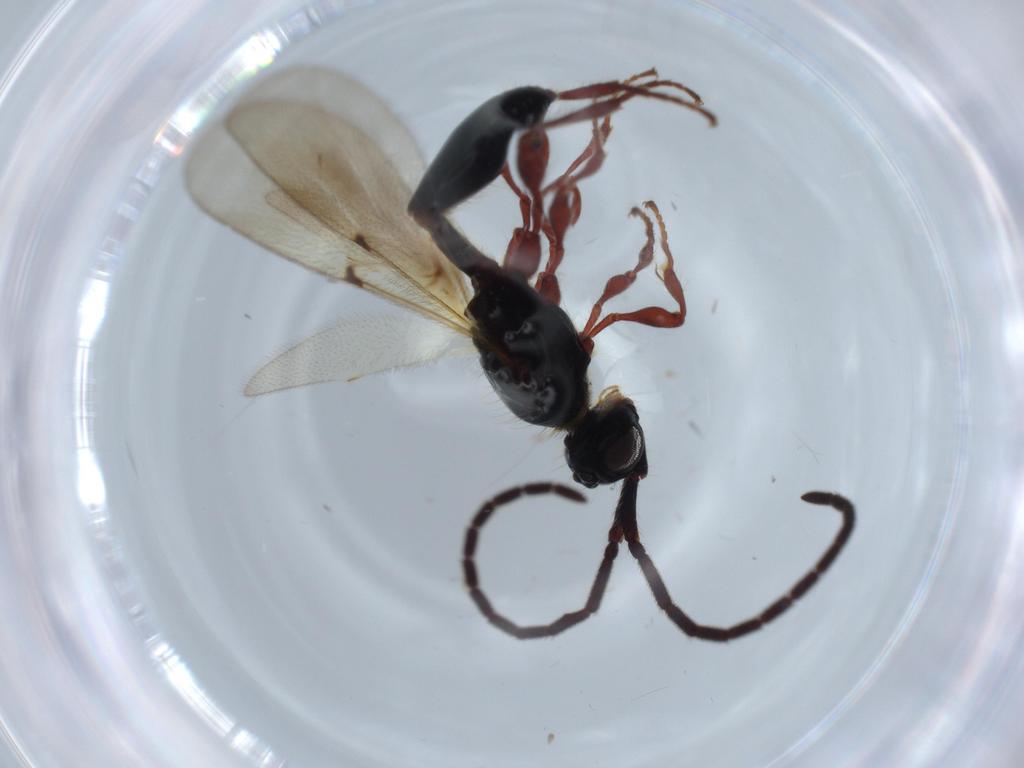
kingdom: Animalia
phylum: Arthropoda
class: Insecta
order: Hymenoptera
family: Diapriidae
